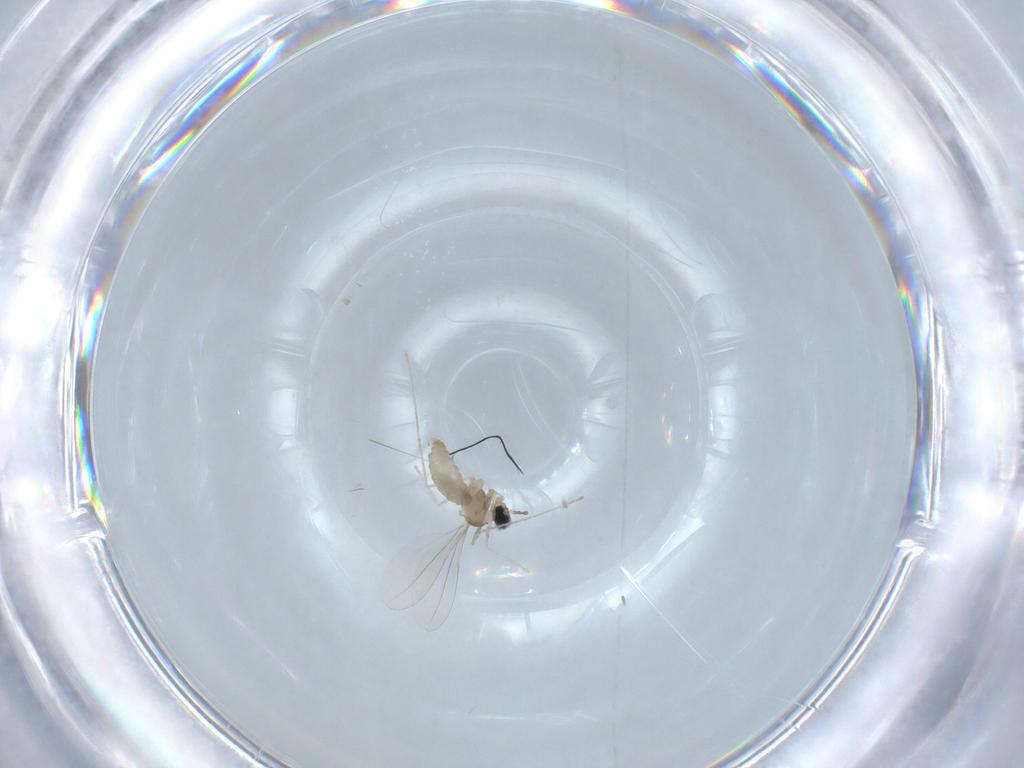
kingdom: Animalia
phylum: Arthropoda
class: Insecta
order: Diptera
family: Cecidomyiidae
